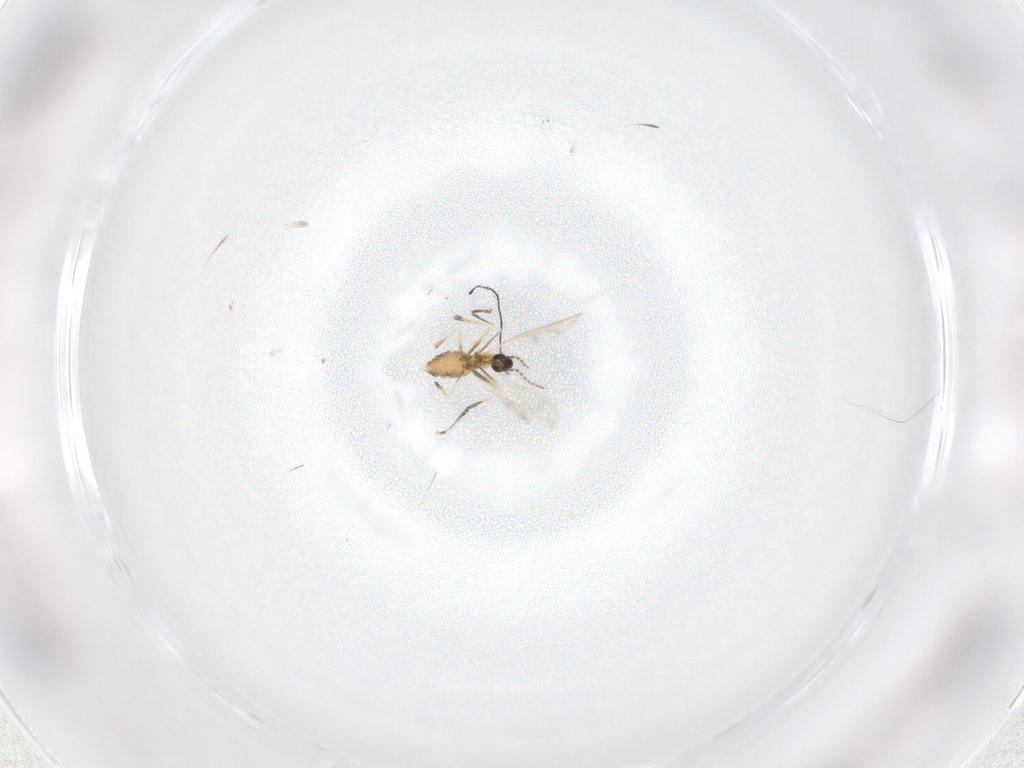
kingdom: Animalia
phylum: Arthropoda
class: Insecta
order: Diptera
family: Cecidomyiidae
